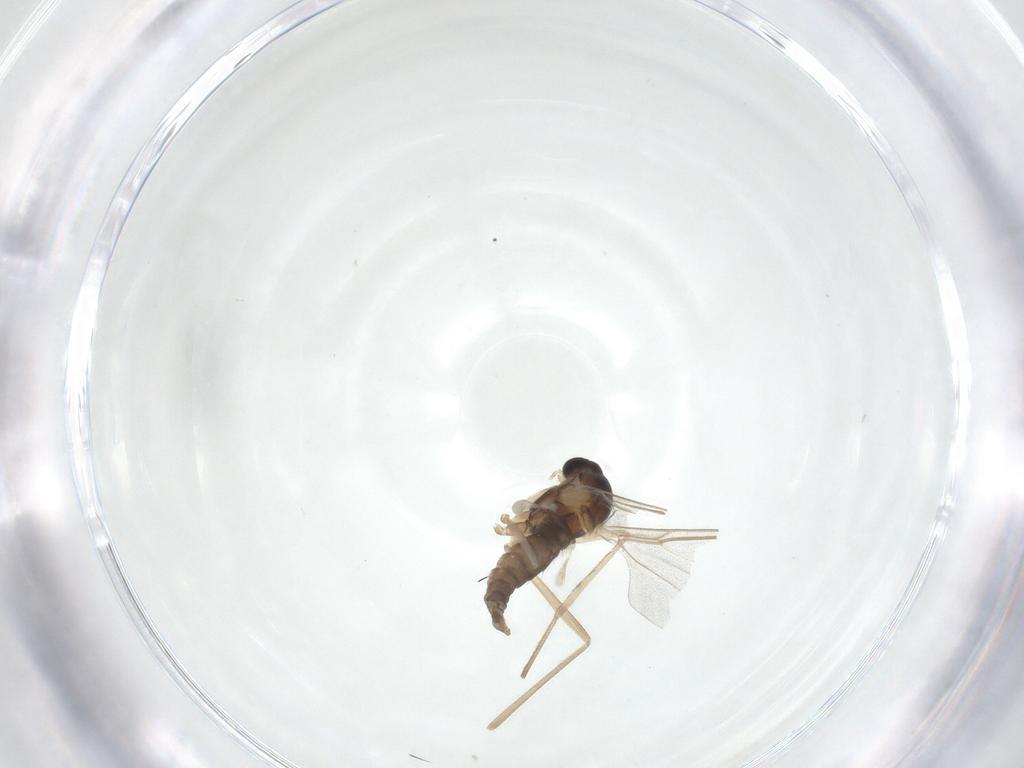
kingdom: Animalia
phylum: Arthropoda
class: Insecta
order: Diptera
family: Cecidomyiidae
